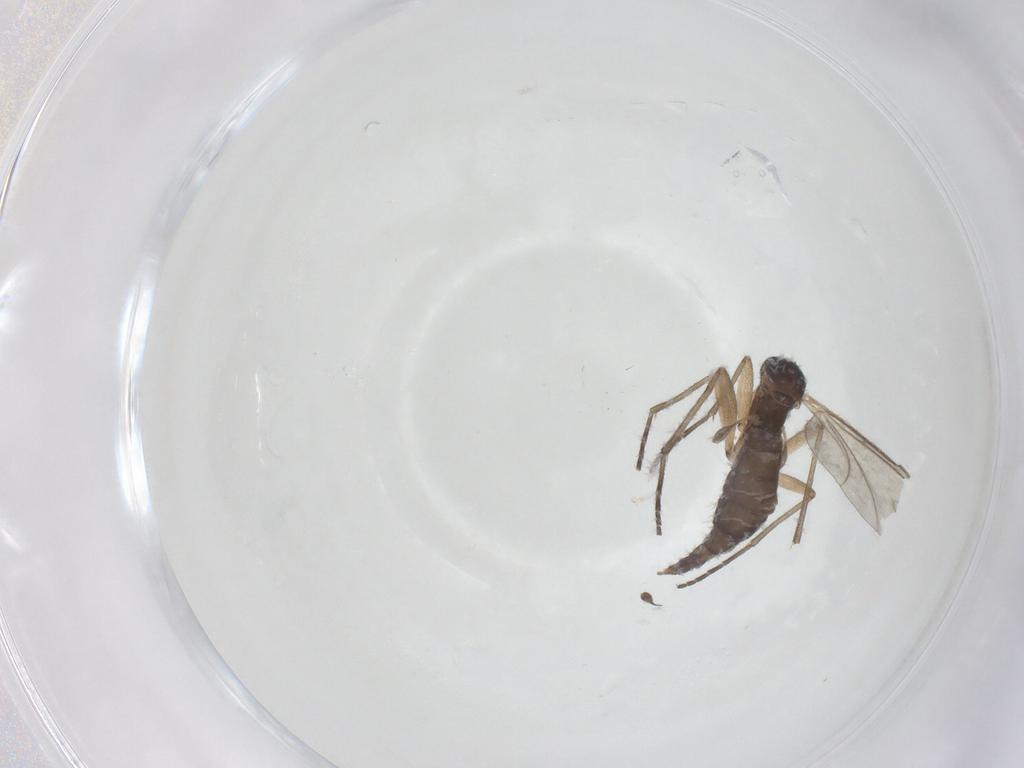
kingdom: Animalia
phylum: Arthropoda
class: Insecta
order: Diptera
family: Sciaridae
